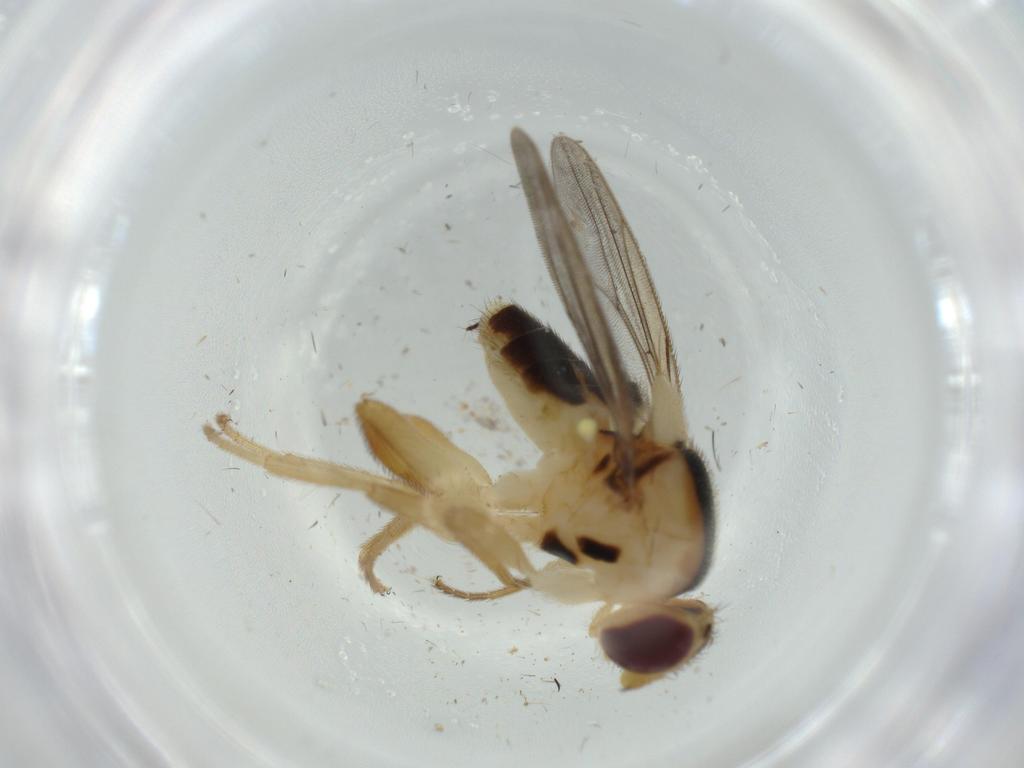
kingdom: Animalia
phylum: Arthropoda
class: Insecta
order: Diptera
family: Chloropidae
